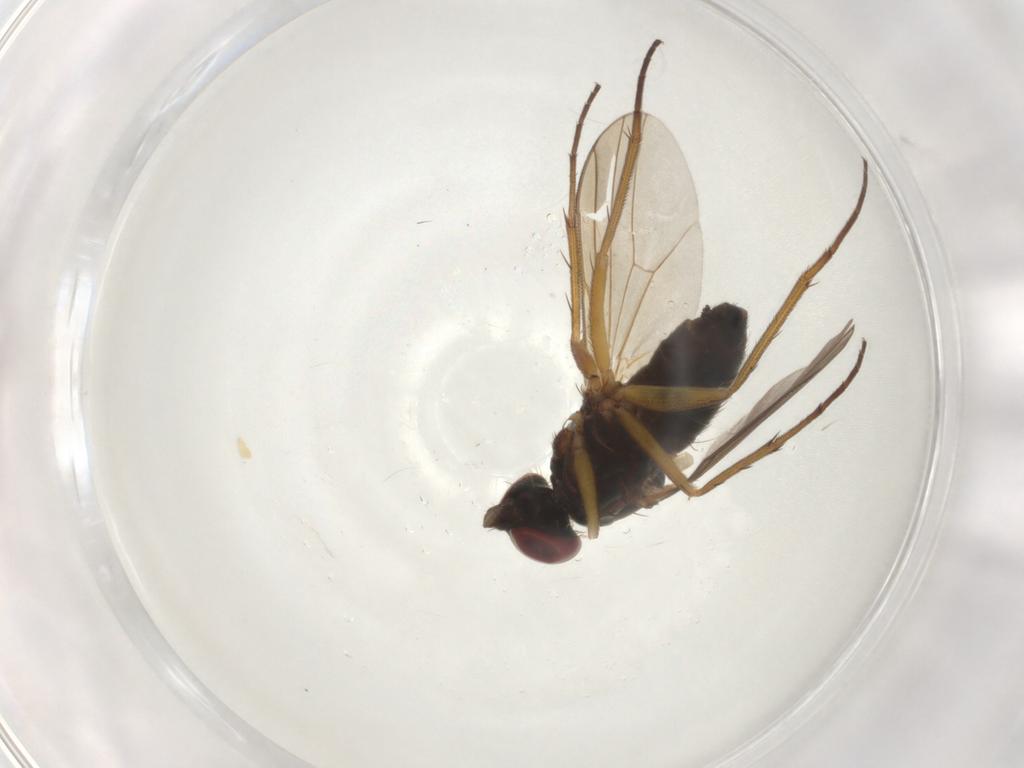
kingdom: Animalia
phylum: Arthropoda
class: Insecta
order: Diptera
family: Dolichopodidae
